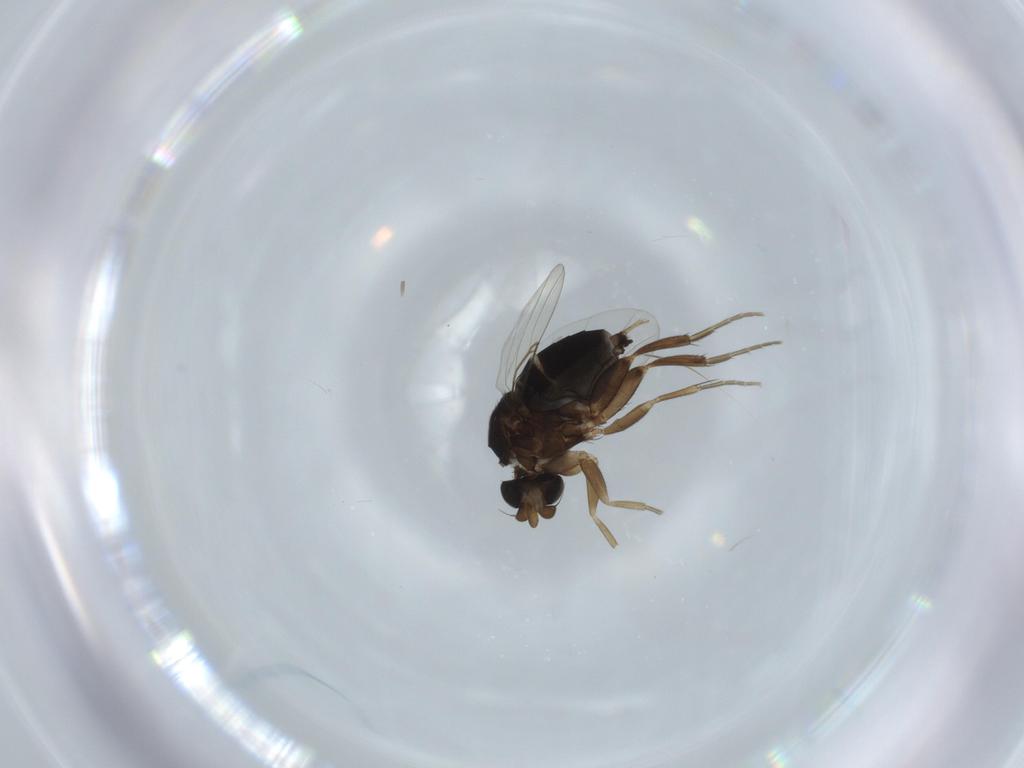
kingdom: Animalia
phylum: Arthropoda
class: Insecta
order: Diptera
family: Phoridae
